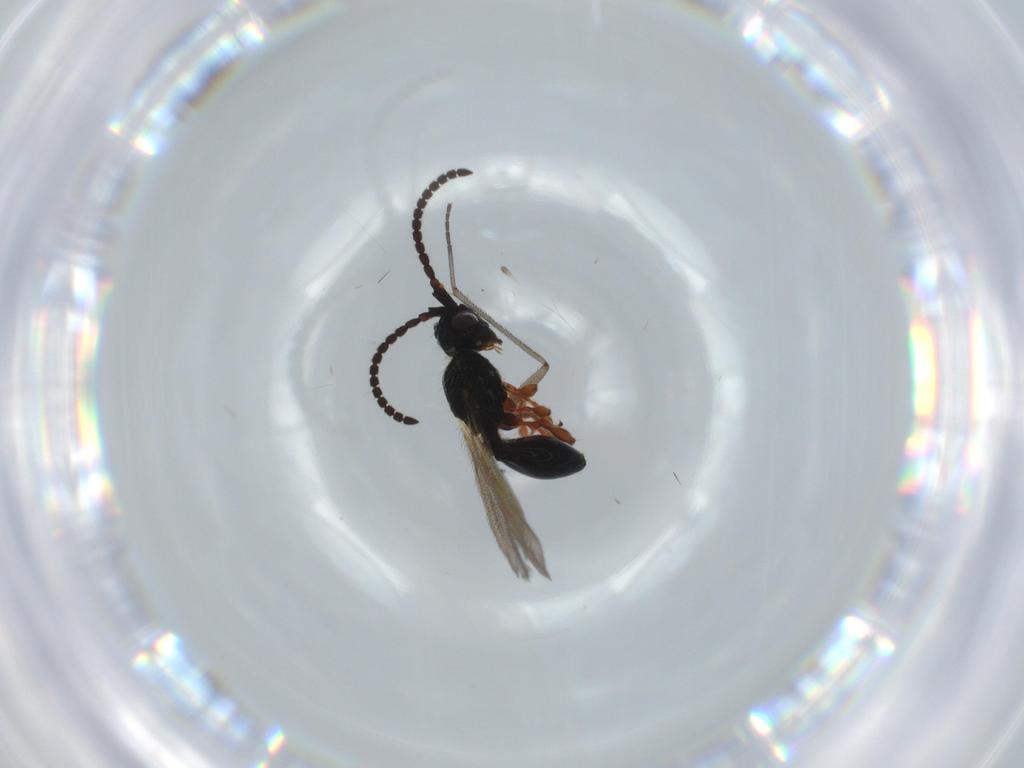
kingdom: Animalia
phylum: Arthropoda
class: Insecta
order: Hymenoptera
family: Diapriidae
